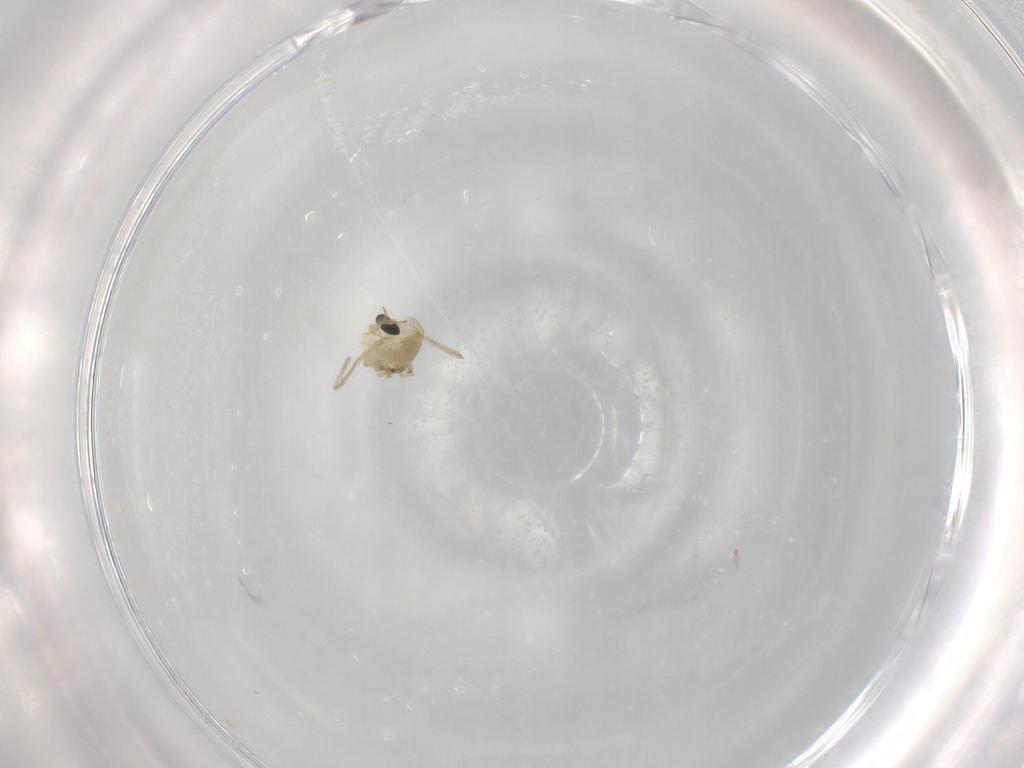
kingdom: Animalia
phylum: Arthropoda
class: Insecta
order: Diptera
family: Chironomidae
